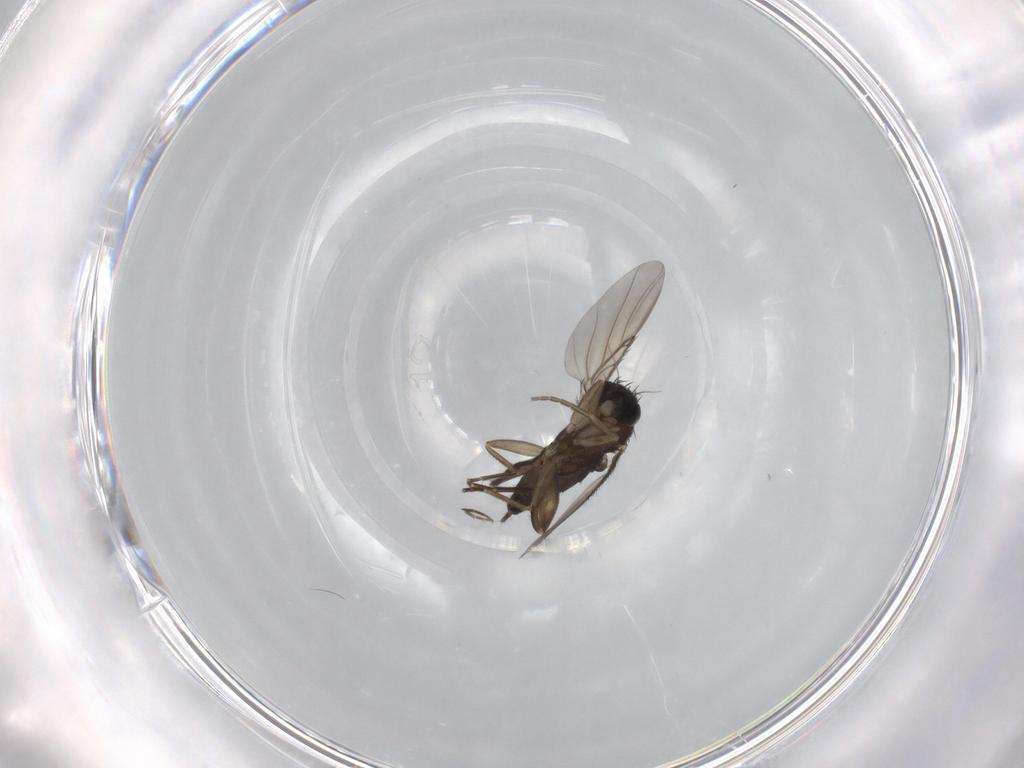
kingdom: Animalia
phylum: Arthropoda
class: Insecta
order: Diptera
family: Phoridae
